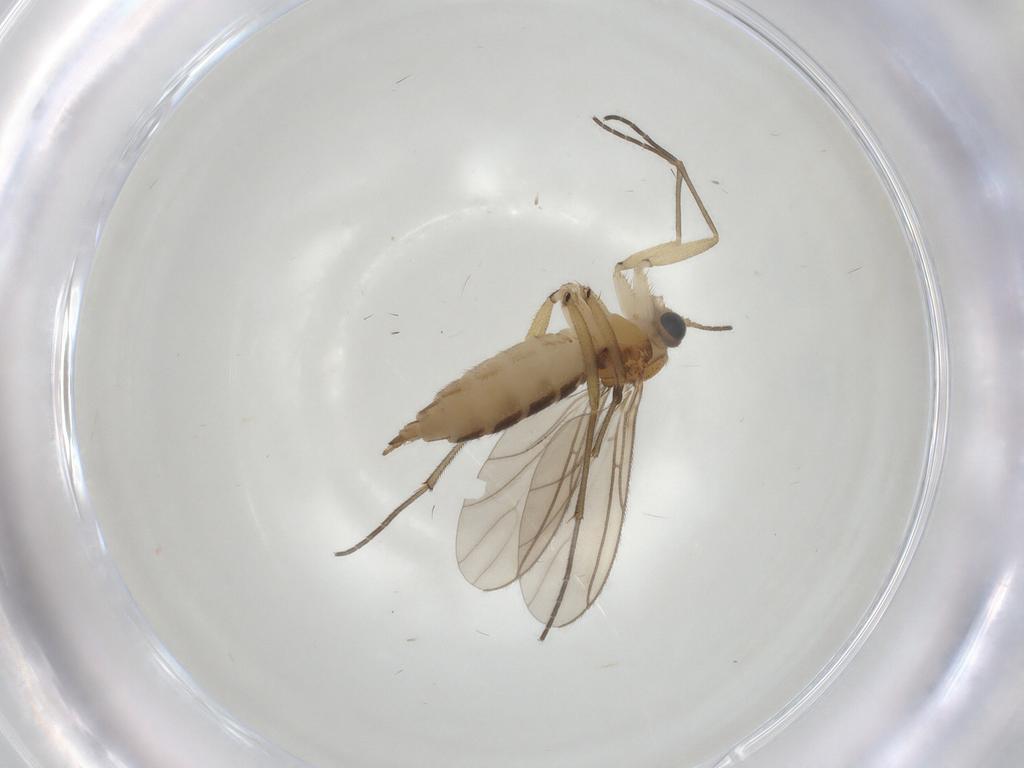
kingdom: Animalia
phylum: Arthropoda
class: Insecta
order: Diptera
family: Sciaridae
